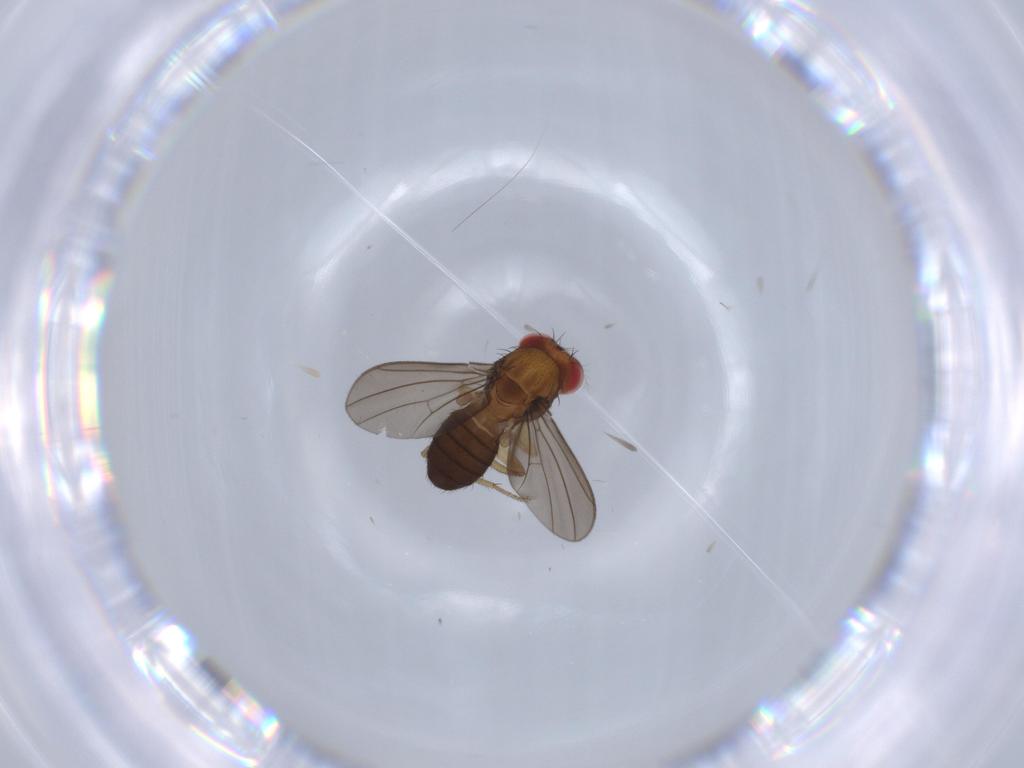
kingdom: Animalia
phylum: Arthropoda
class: Insecta
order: Diptera
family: Drosophilidae
